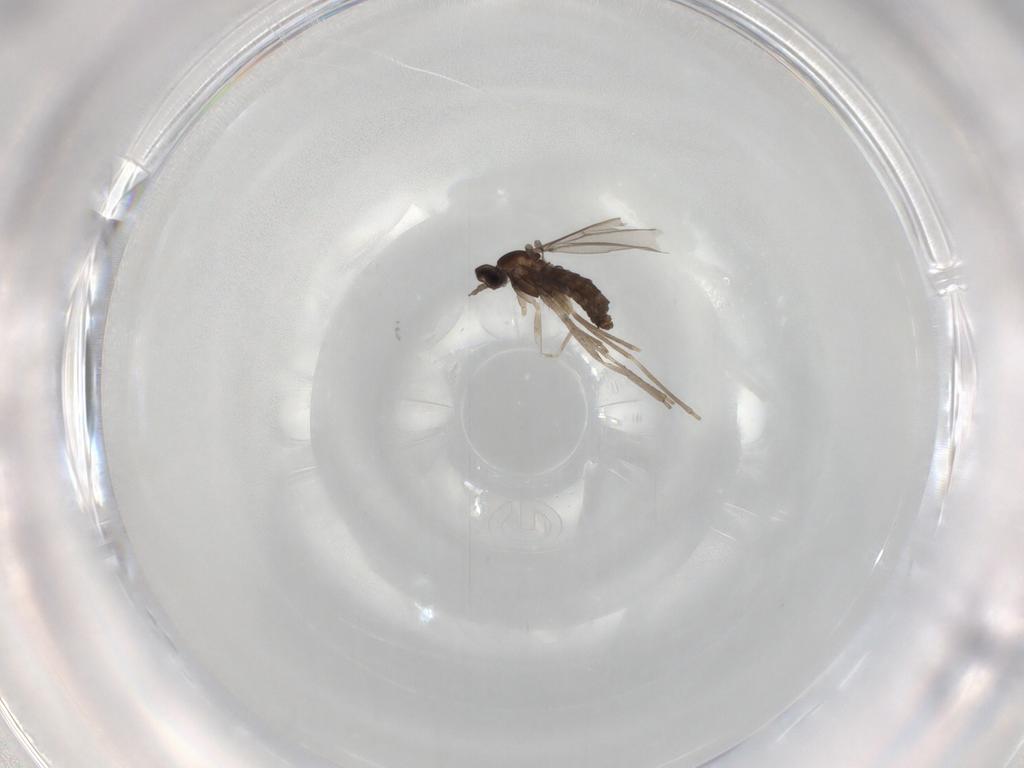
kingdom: Animalia
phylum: Arthropoda
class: Insecta
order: Diptera
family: Cecidomyiidae
